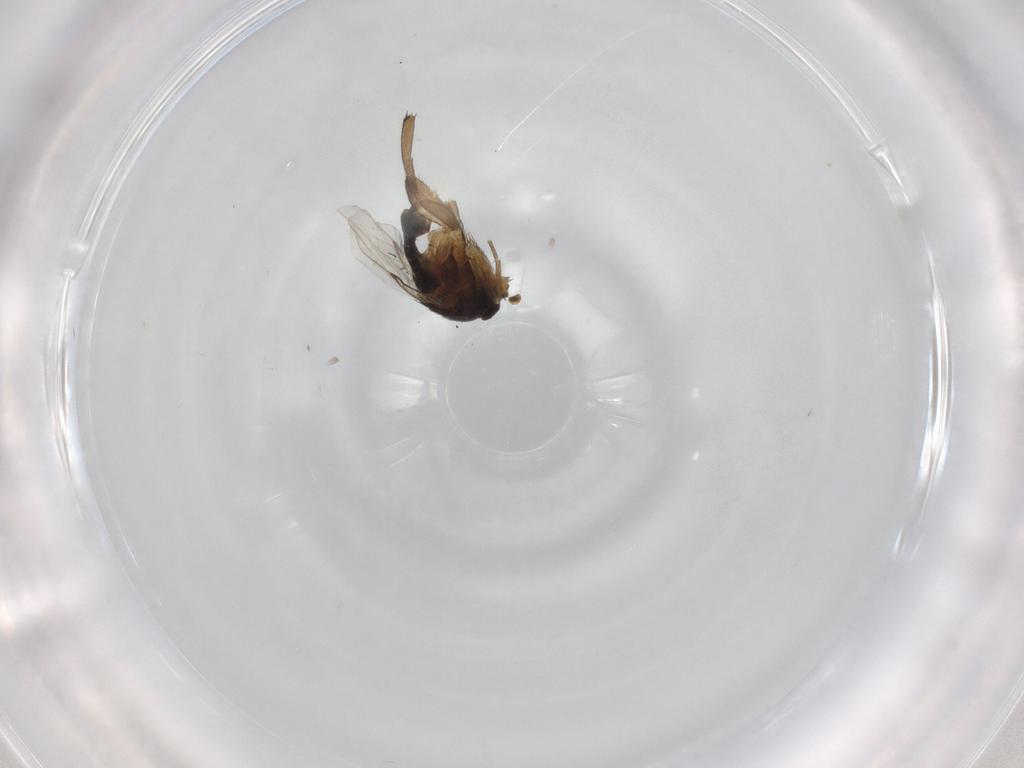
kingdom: Animalia
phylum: Arthropoda
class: Insecta
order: Diptera
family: Phoridae
